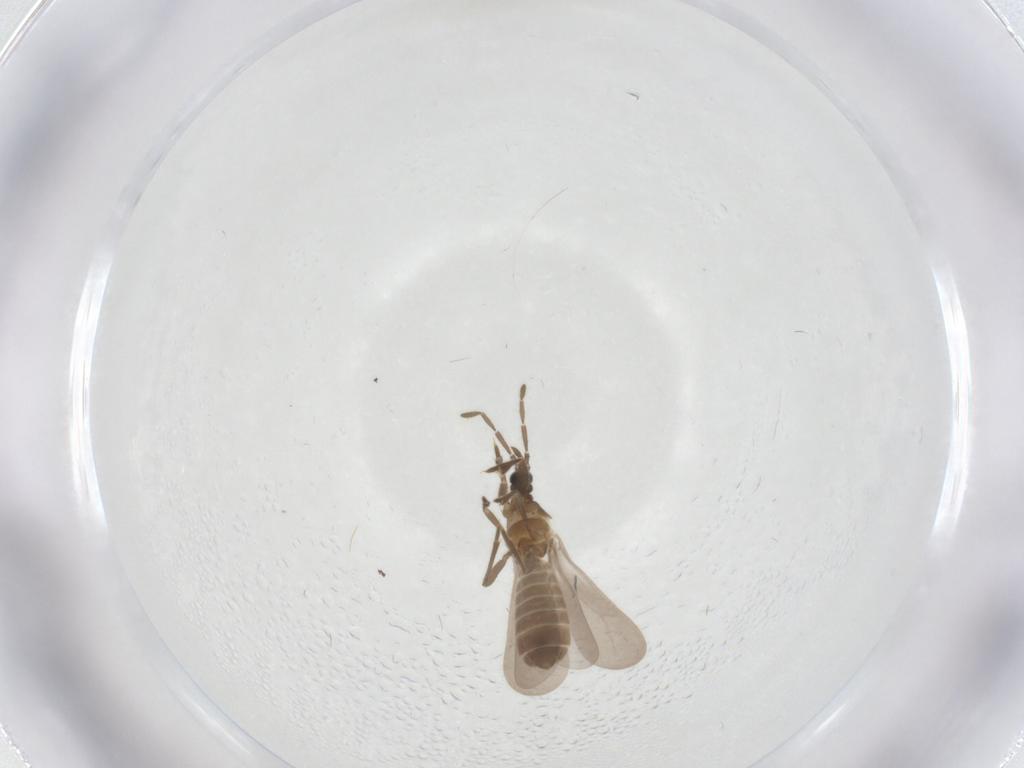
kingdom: Animalia
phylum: Arthropoda
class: Insecta
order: Hemiptera
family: Enicocephalidae
